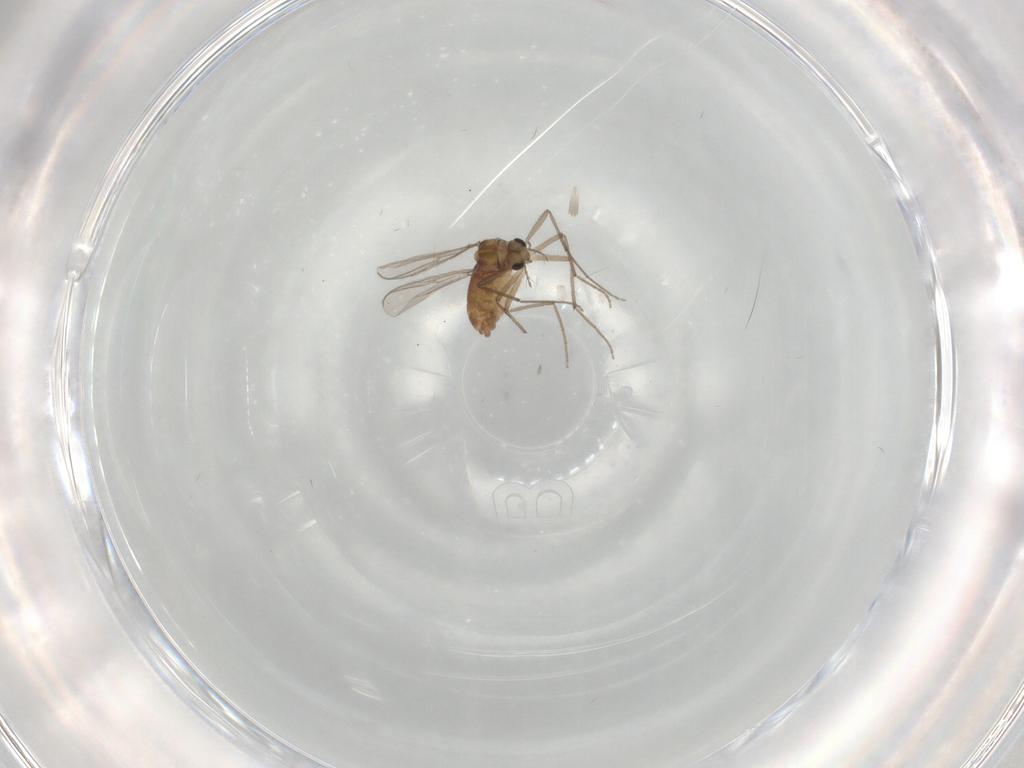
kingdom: Animalia
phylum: Arthropoda
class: Insecta
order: Diptera
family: Chironomidae
